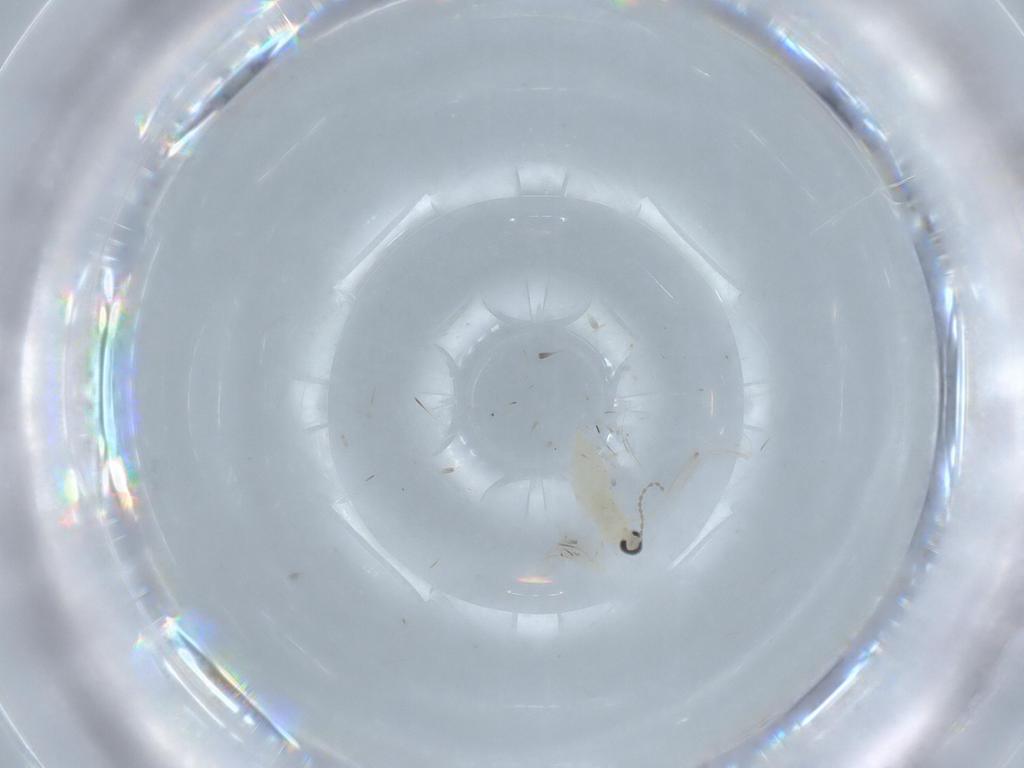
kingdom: Animalia
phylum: Arthropoda
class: Insecta
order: Diptera
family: Cecidomyiidae
